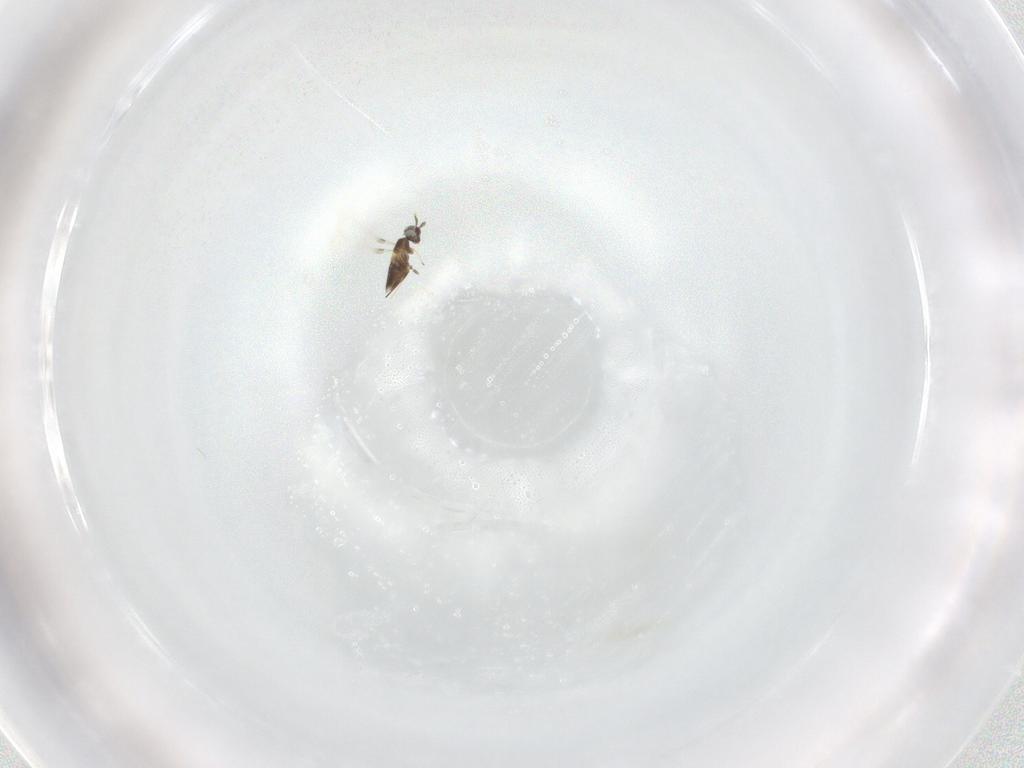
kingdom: Animalia
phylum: Arthropoda
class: Insecta
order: Hymenoptera
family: Mymaridae
